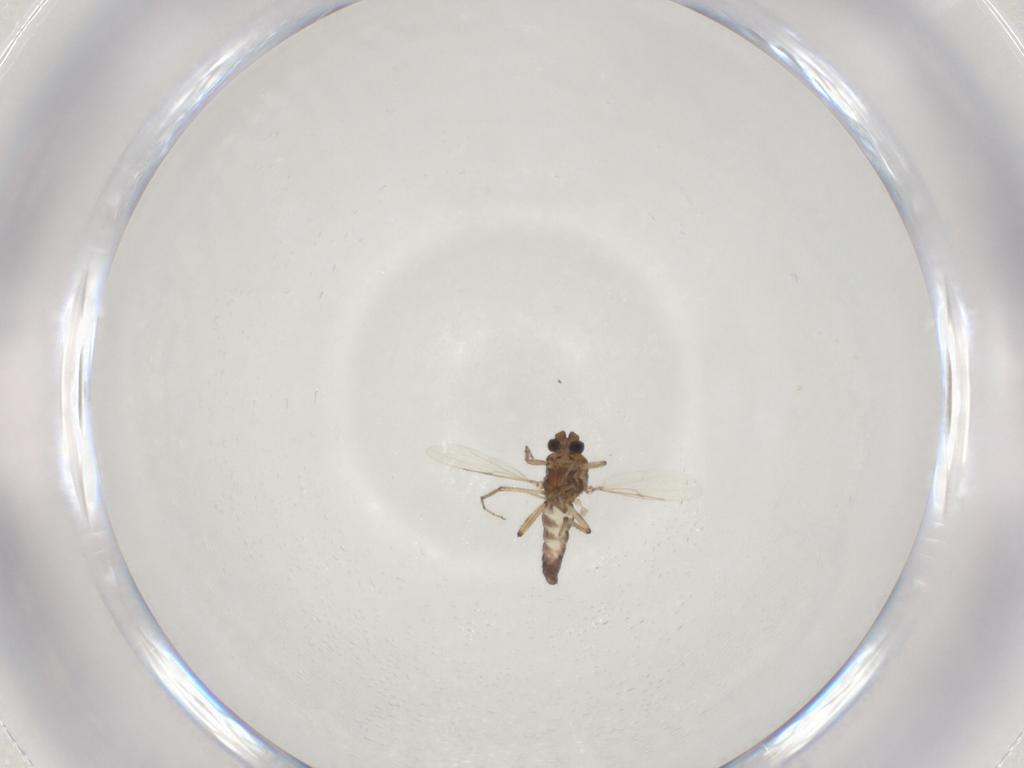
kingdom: Animalia
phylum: Arthropoda
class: Insecta
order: Diptera
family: Ceratopogonidae
